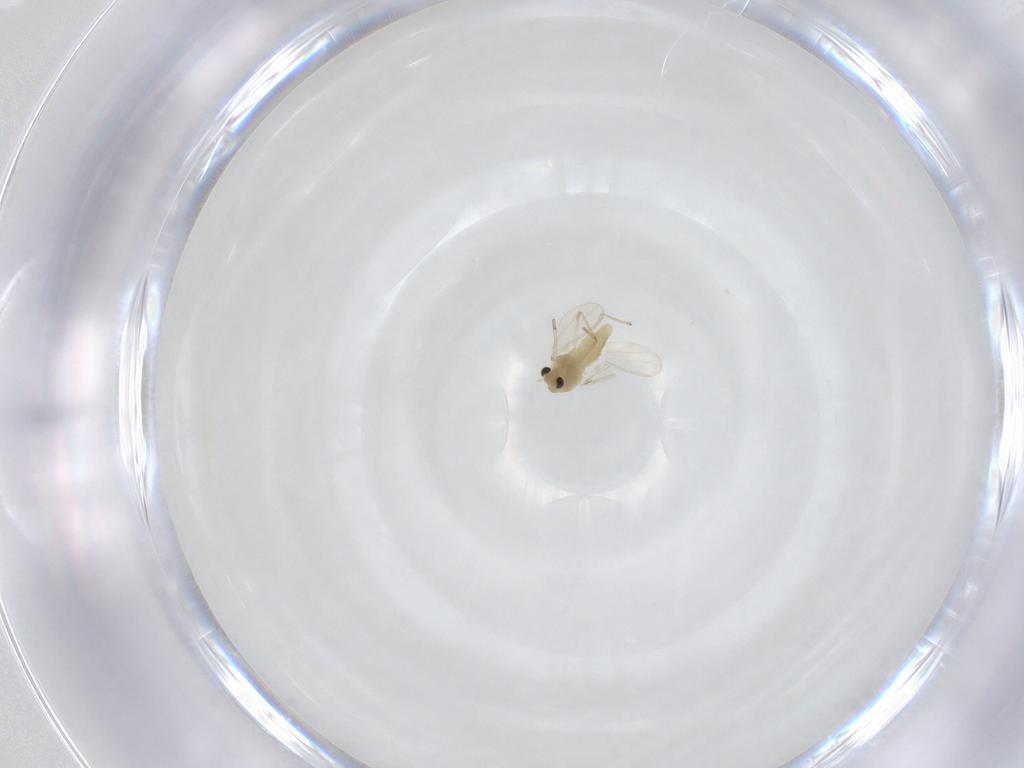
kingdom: Animalia
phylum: Arthropoda
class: Insecta
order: Diptera
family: Chironomidae
